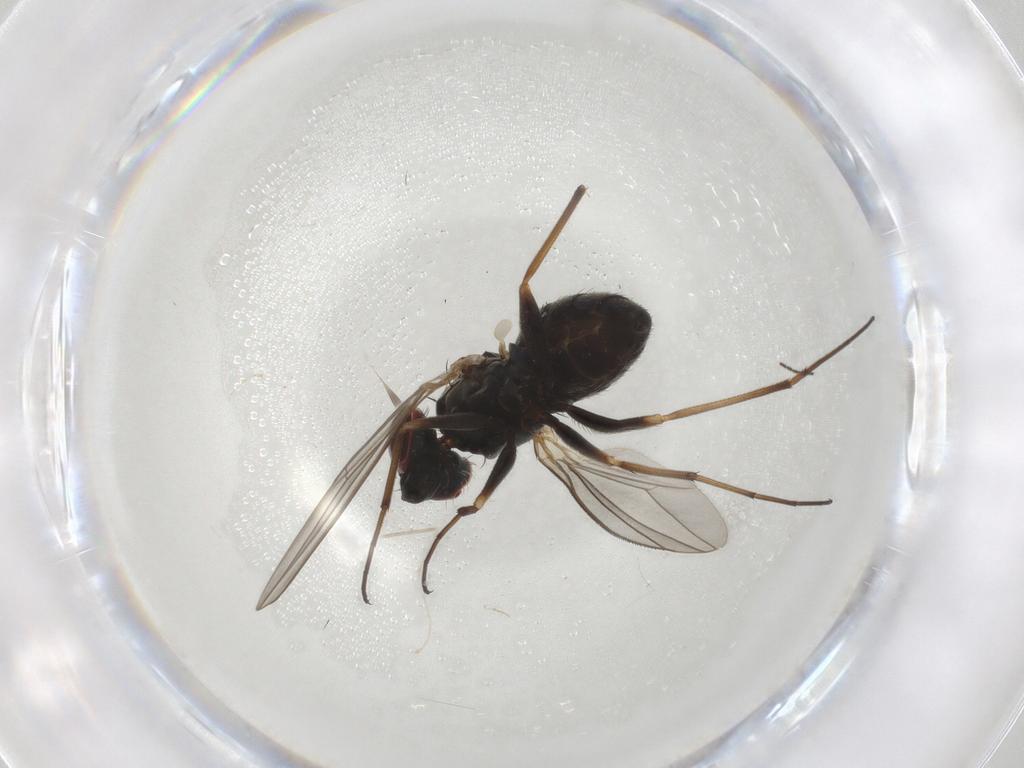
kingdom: Animalia
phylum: Arthropoda
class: Insecta
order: Diptera
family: Dolichopodidae
